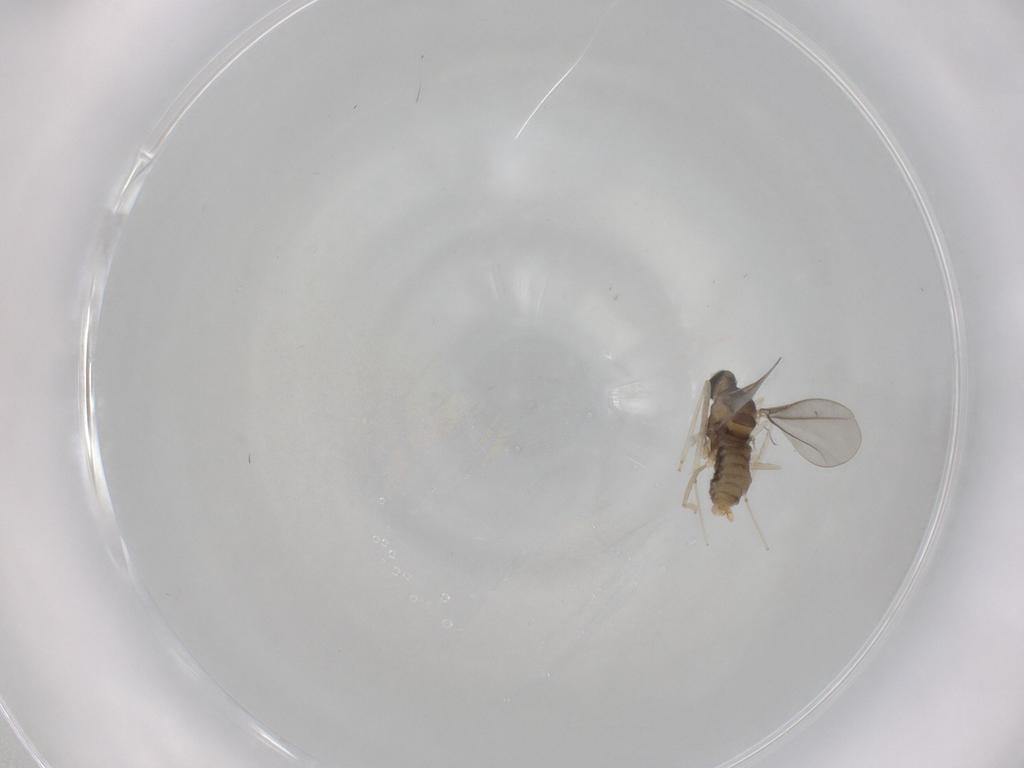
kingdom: Animalia
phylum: Arthropoda
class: Insecta
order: Diptera
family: Cecidomyiidae
